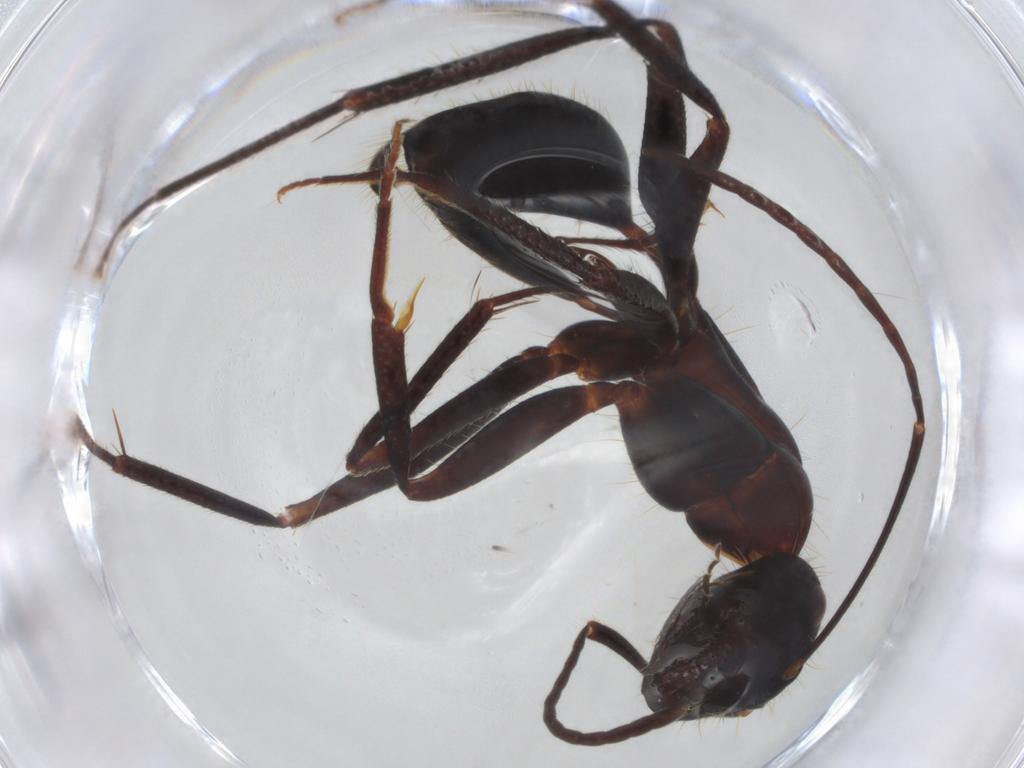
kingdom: Animalia
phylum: Arthropoda
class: Insecta
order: Hymenoptera
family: Formicidae
